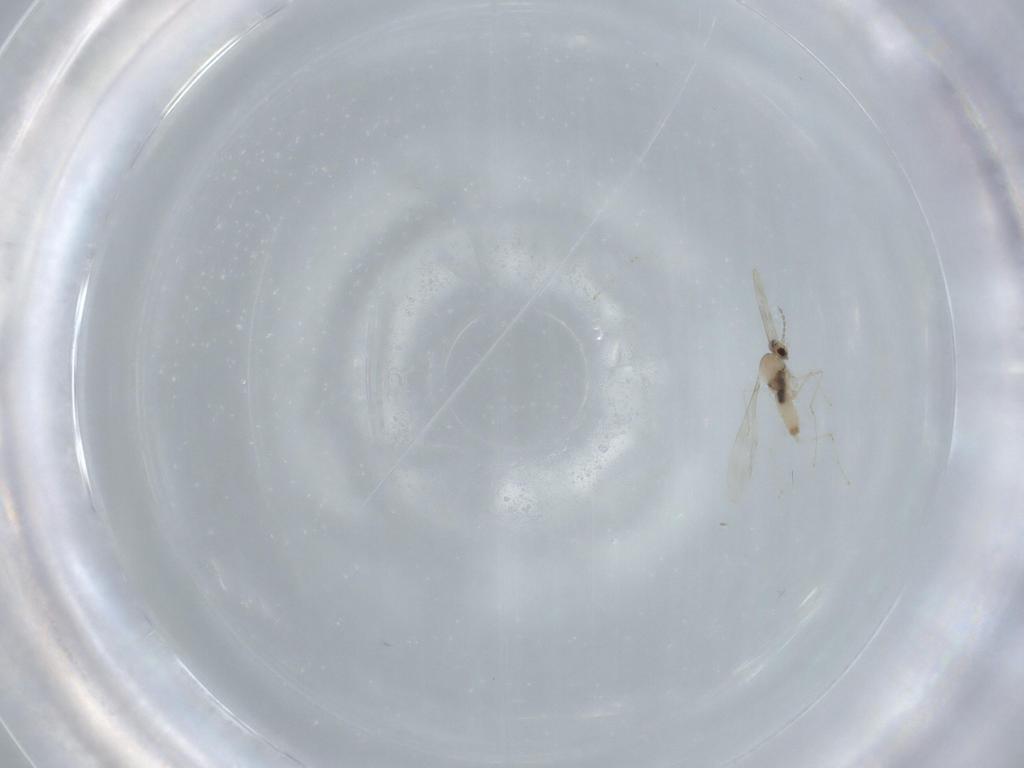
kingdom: Animalia
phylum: Arthropoda
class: Insecta
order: Diptera
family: Cecidomyiidae
